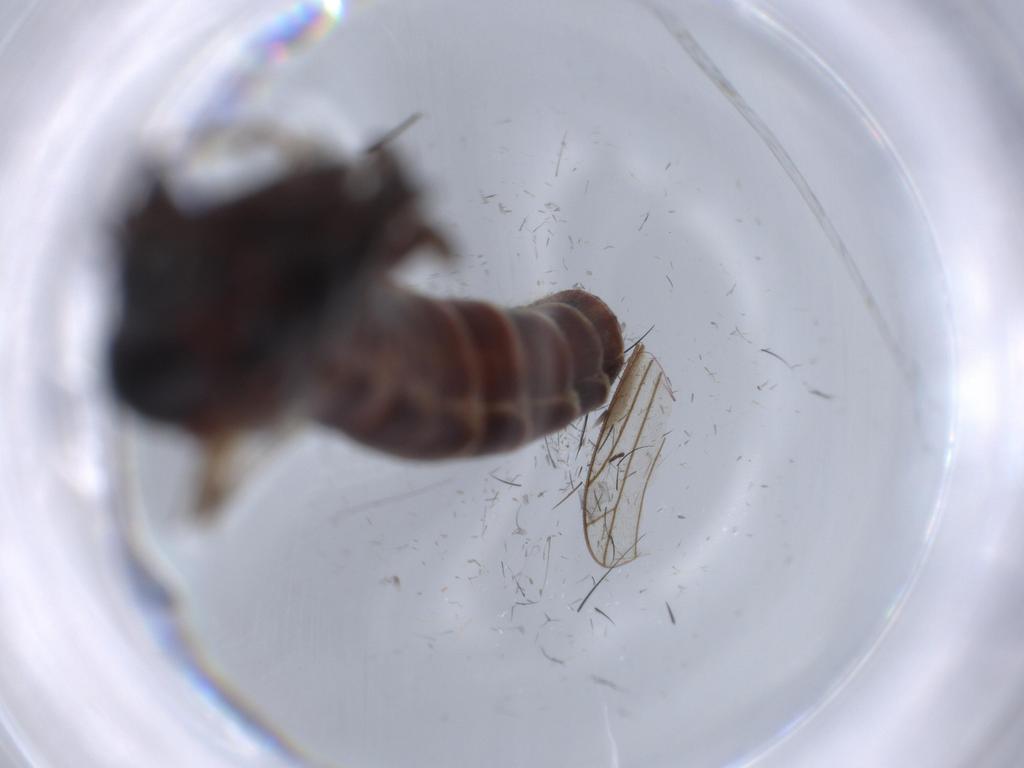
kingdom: Animalia
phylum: Arthropoda
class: Insecta
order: Diptera
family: Cecidomyiidae
